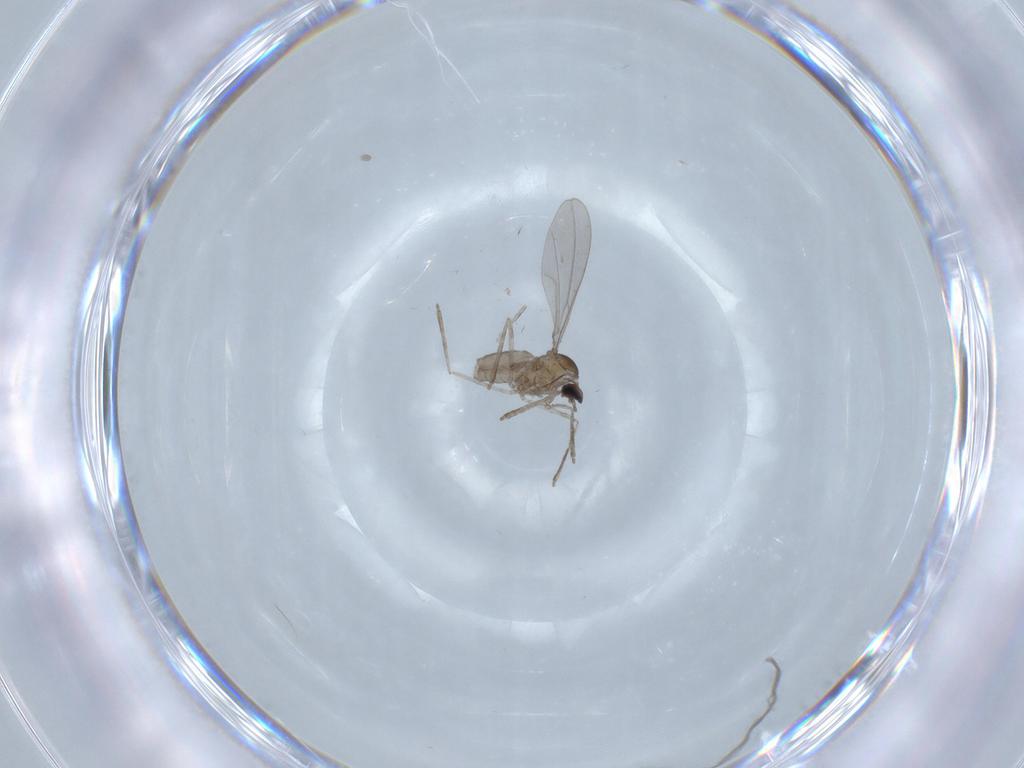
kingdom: Animalia
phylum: Arthropoda
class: Insecta
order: Diptera
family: Cecidomyiidae
